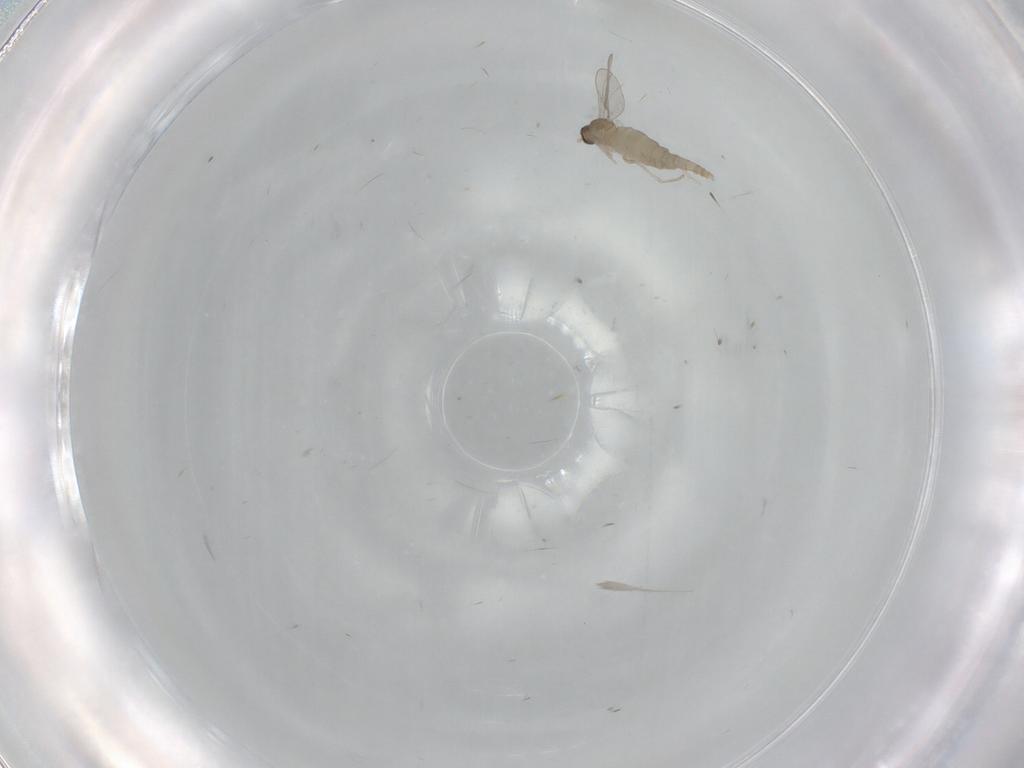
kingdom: Animalia
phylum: Arthropoda
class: Insecta
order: Diptera
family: Cecidomyiidae
